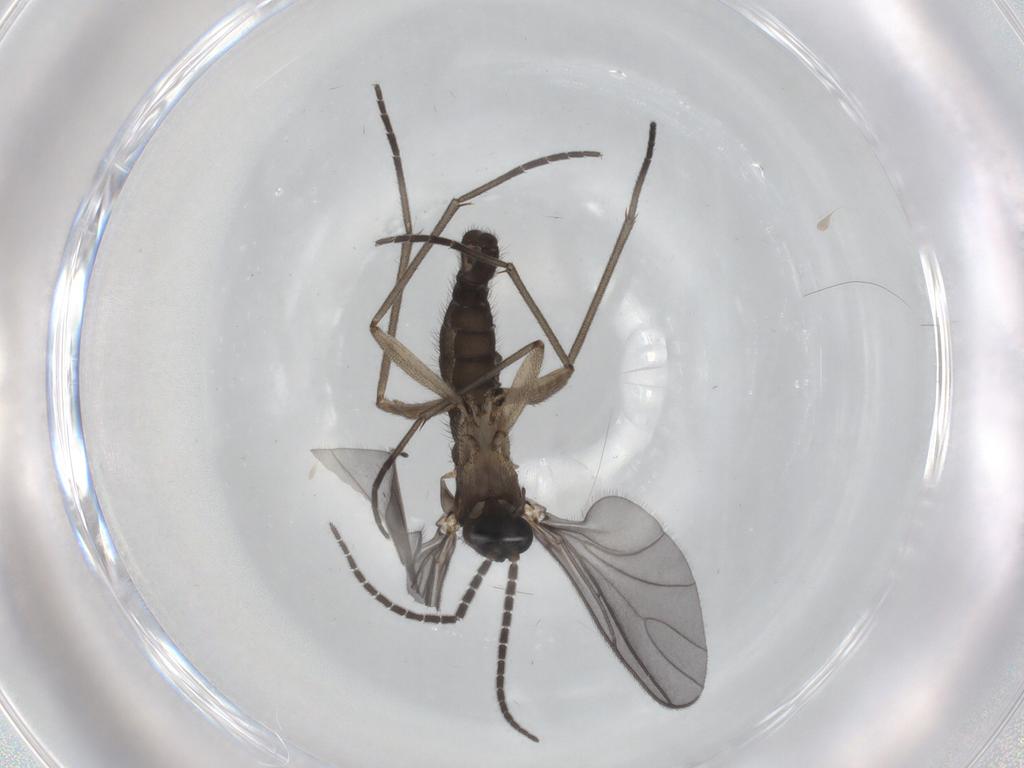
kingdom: Animalia
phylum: Arthropoda
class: Insecta
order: Diptera
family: Sciaridae
